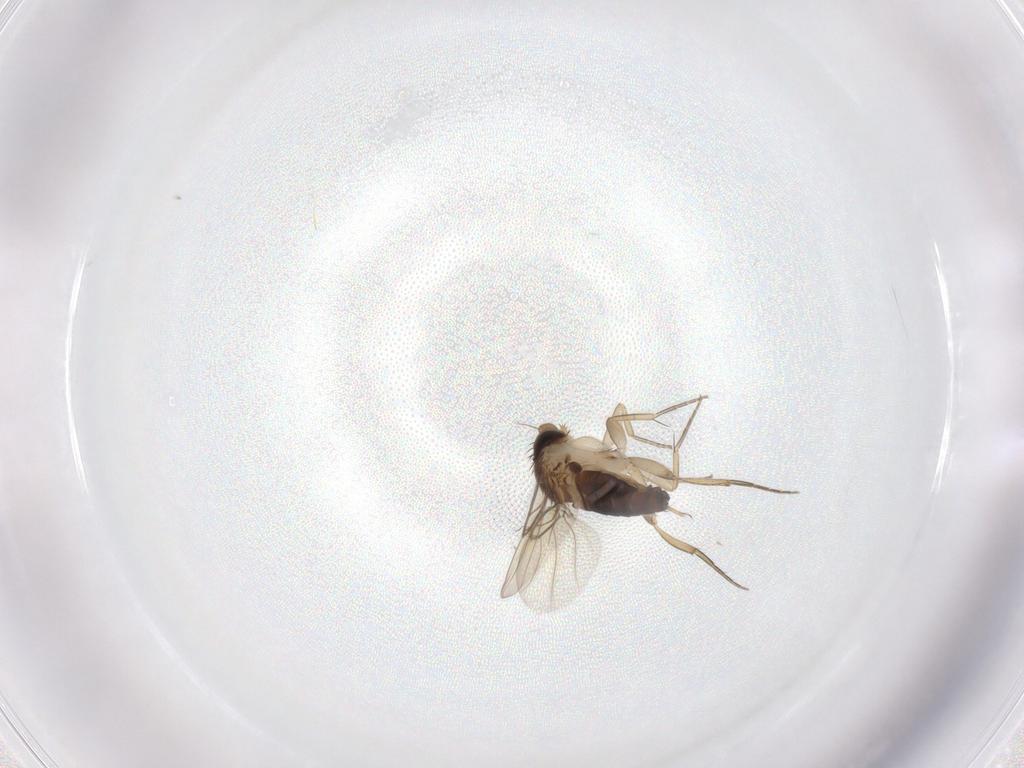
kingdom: Animalia
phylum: Arthropoda
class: Insecta
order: Diptera
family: Phoridae
